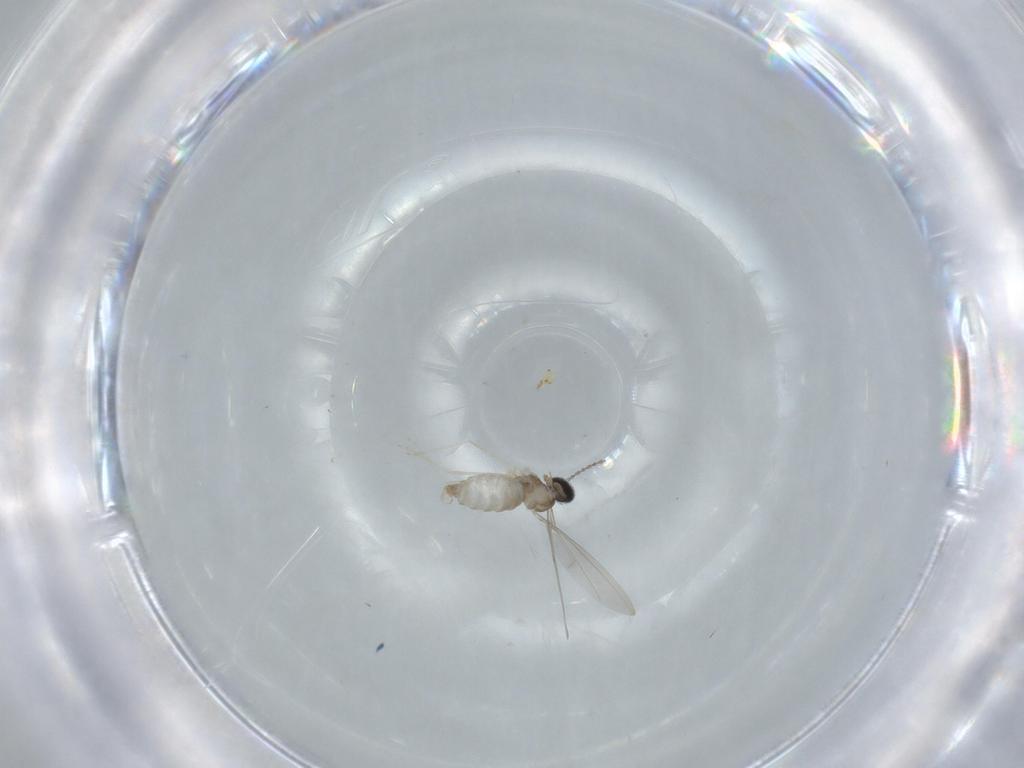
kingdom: Animalia
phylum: Arthropoda
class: Insecta
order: Diptera
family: Cecidomyiidae
